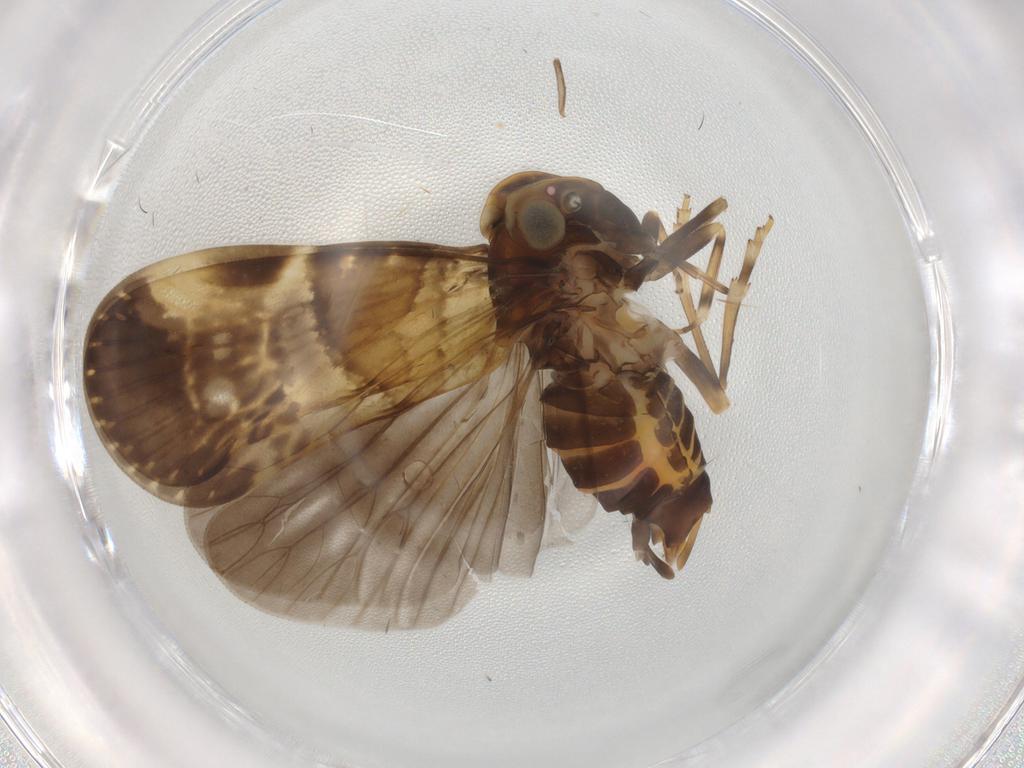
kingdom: Animalia
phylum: Arthropoda
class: Insecta
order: Hemiptera
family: Cixiidae
